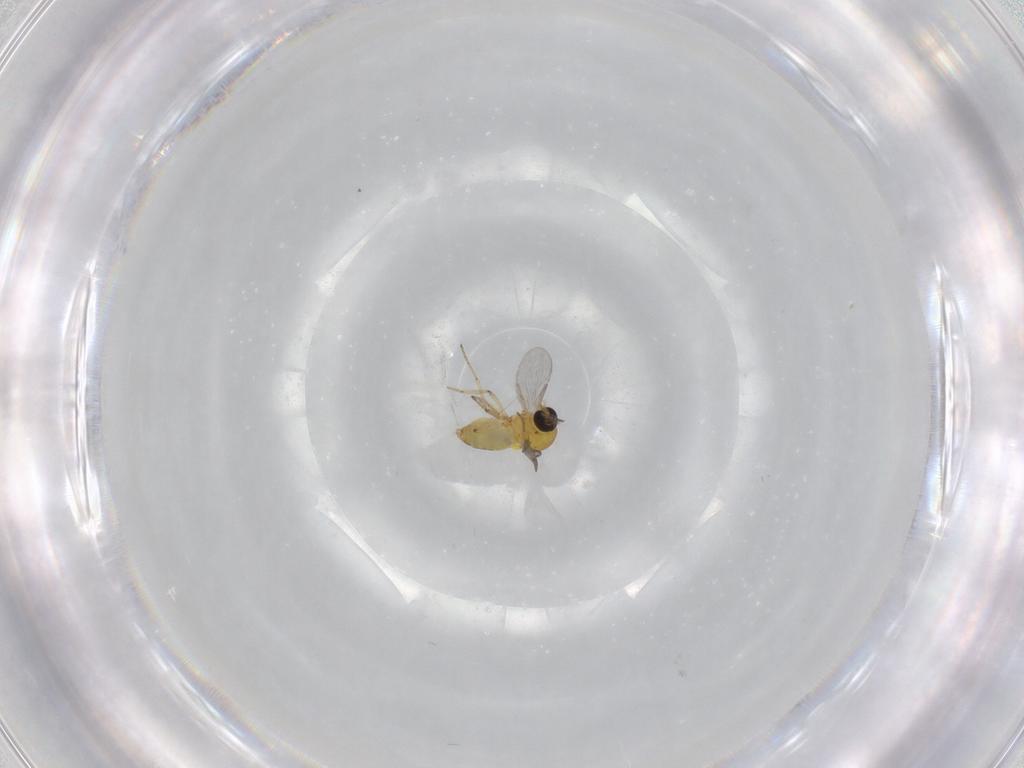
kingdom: Animalia
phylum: Arthropoda
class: Insecta
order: Diptera
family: Ceratopogonidae
